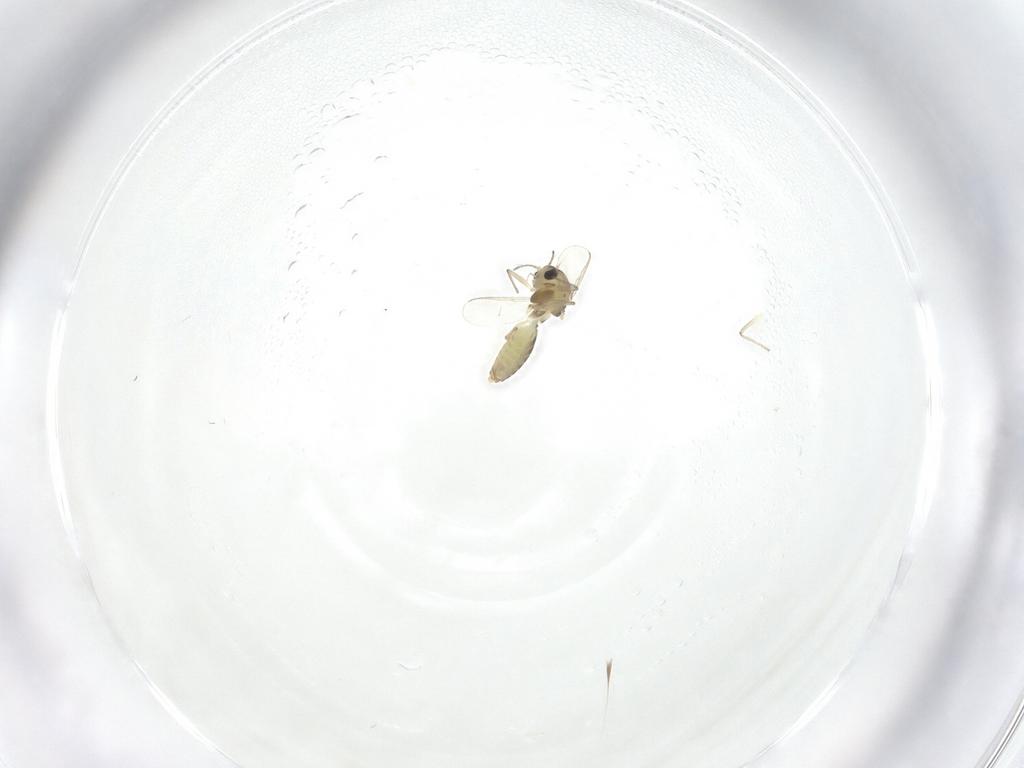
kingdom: Animalia
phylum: Arthropoda
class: Insecta
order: Diptera
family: Chironomidae
